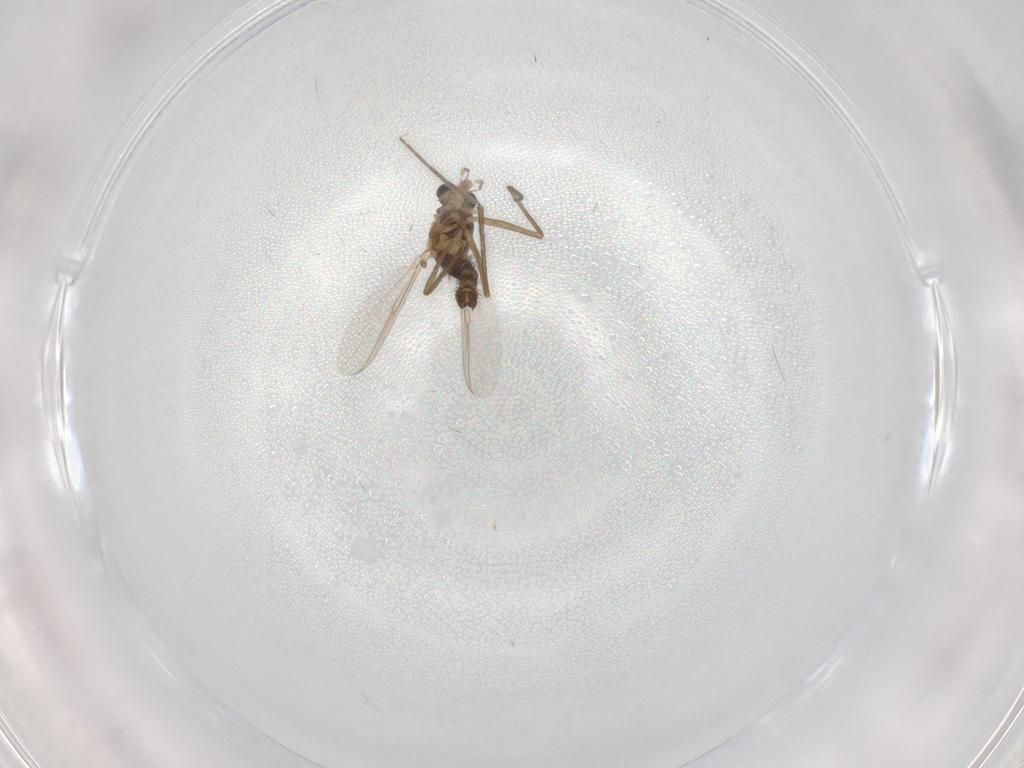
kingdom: Animalia
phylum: Arthropoda
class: Insecta
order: Diptera
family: Chironomidae
